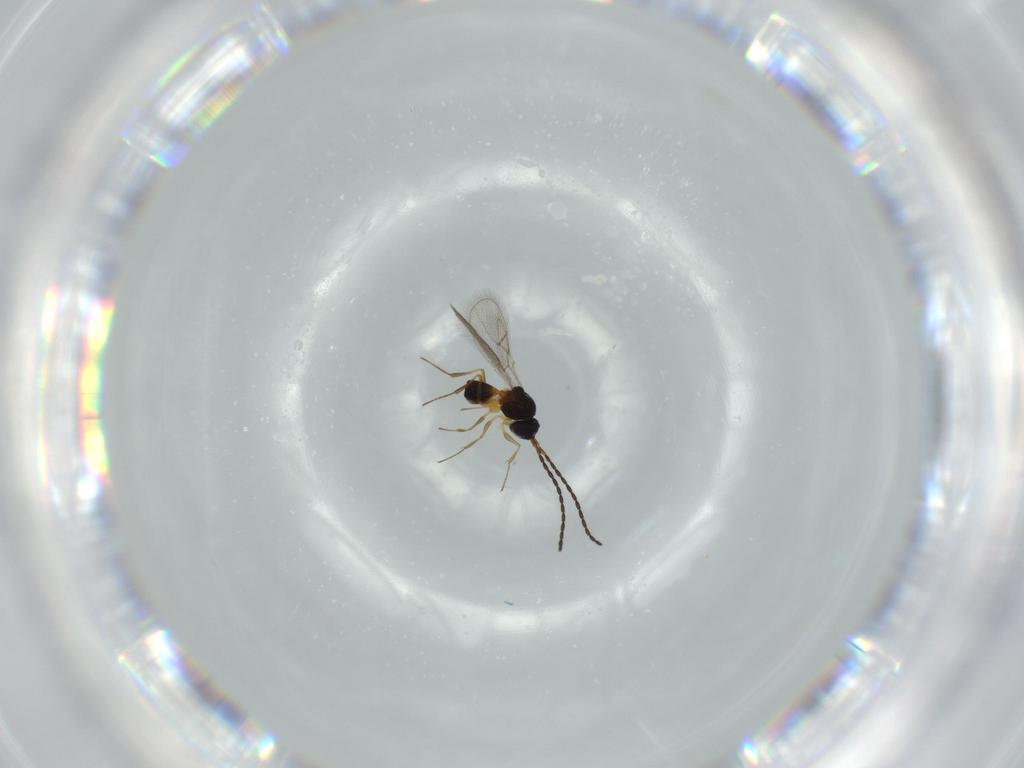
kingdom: Animalia
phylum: Arthropoda
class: Insecta
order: Hymenoptera
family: Figitidae
